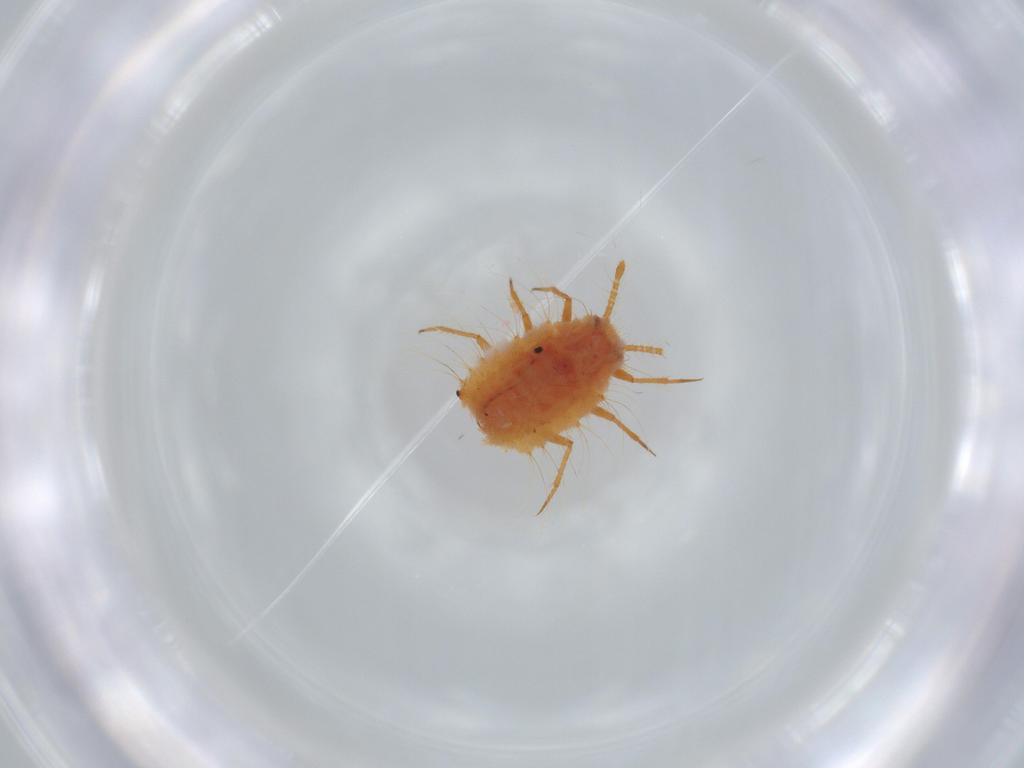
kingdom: Animalia
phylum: Arthropoda
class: Insecta
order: Hemiptera
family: Coccoidea_incertae_sedis
